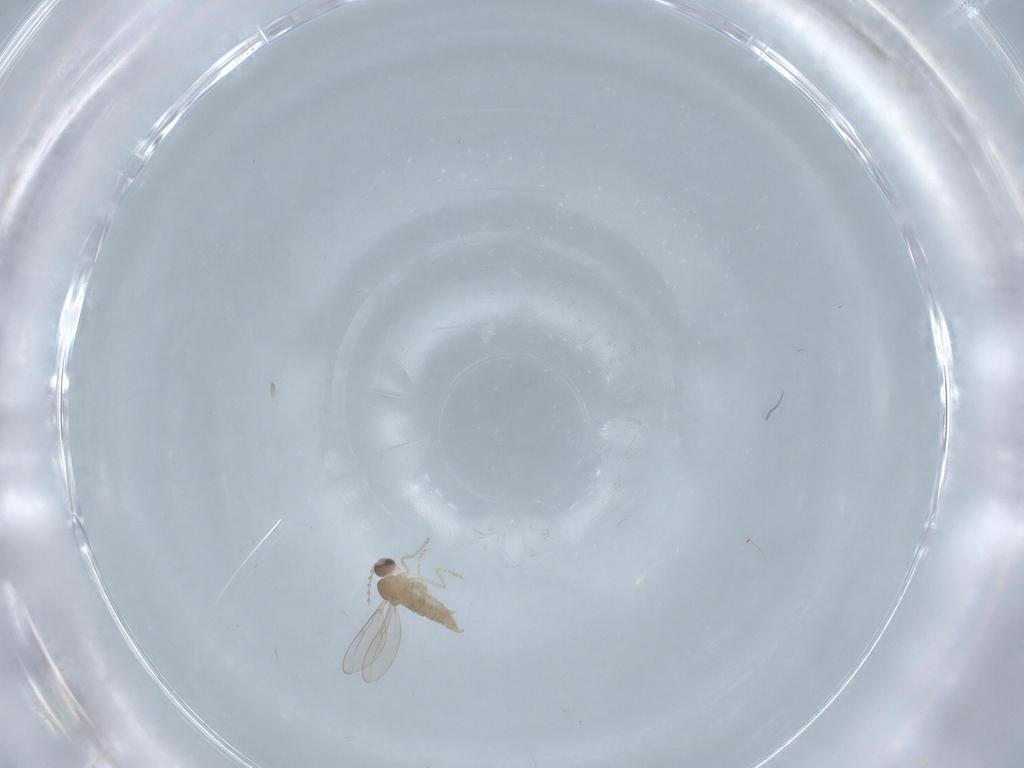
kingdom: Animalia
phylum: Arthropoda
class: Insecta
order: Diptera
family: Psychodidae
